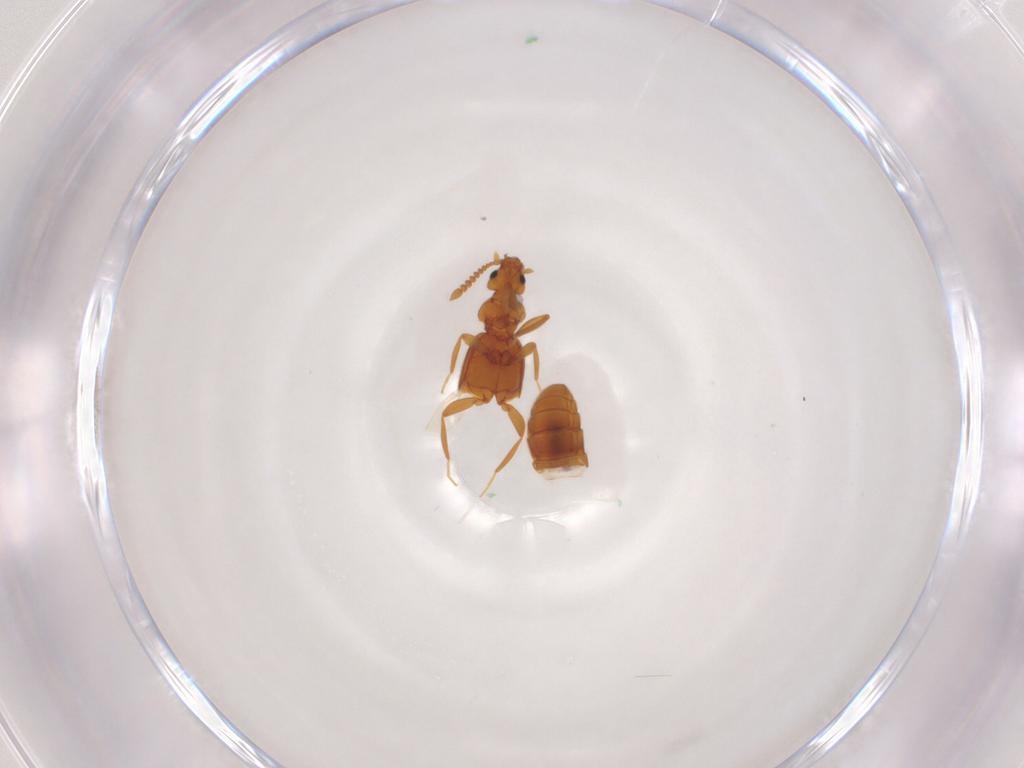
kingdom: Animalia
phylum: Arthropoda
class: Insecta
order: Coleoptera
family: Staphylinidae
